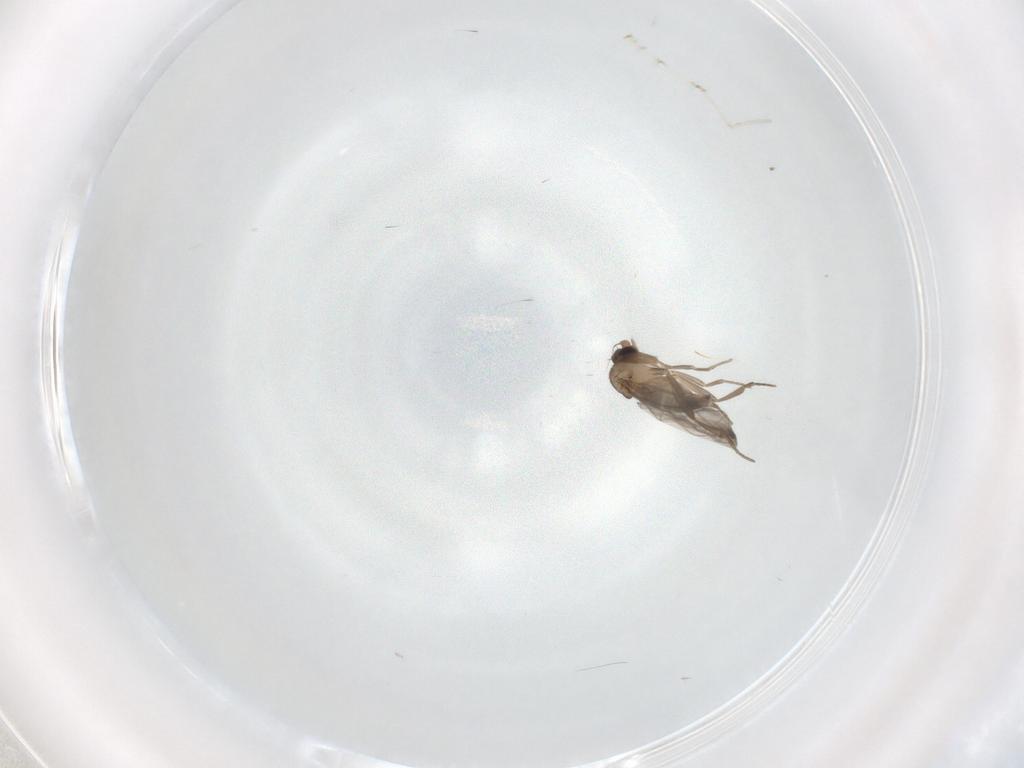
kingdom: Animalia
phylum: Arthropoda
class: Insecta
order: Diptera
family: Cecidomyiidae
